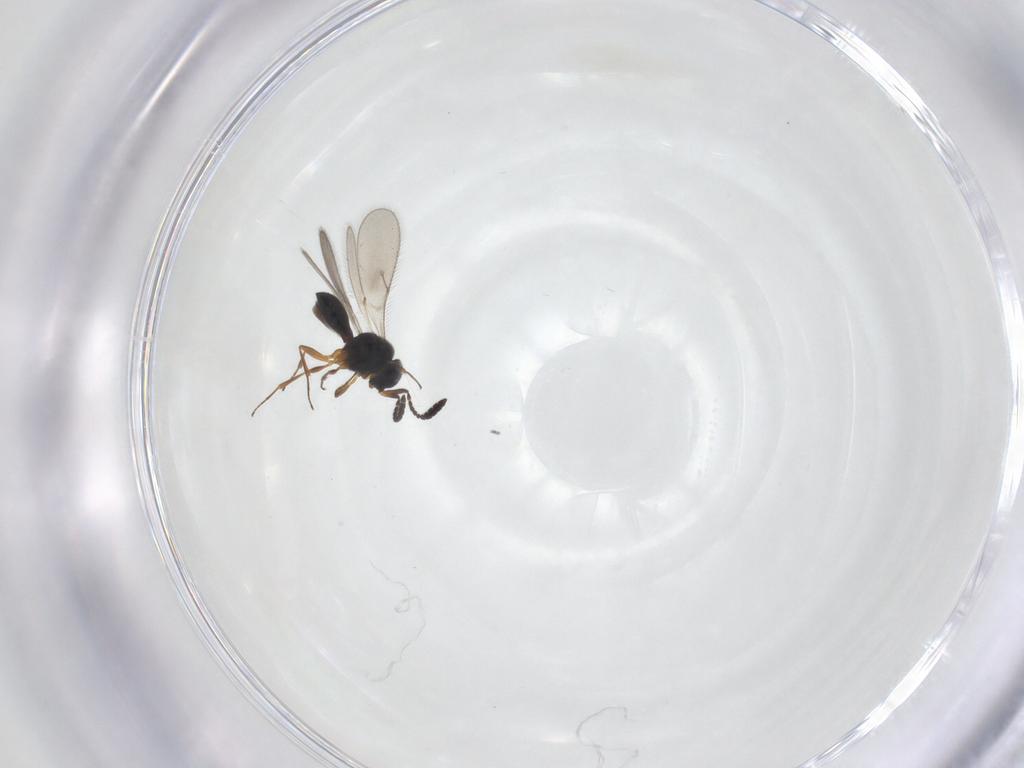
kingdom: Animalia
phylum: Arthropoda
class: Insecta
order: Hymenoptera
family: Scelionidae
